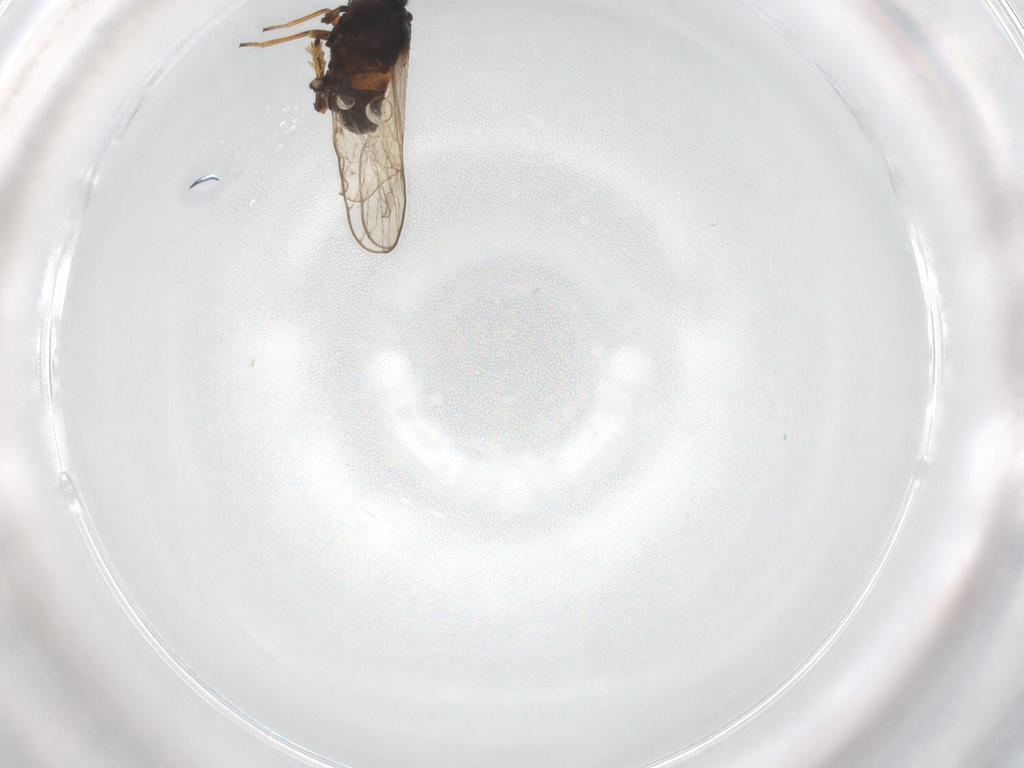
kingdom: Animalia
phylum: Arthropoda
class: Insecta
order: Hemiptera
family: Delphacidae
